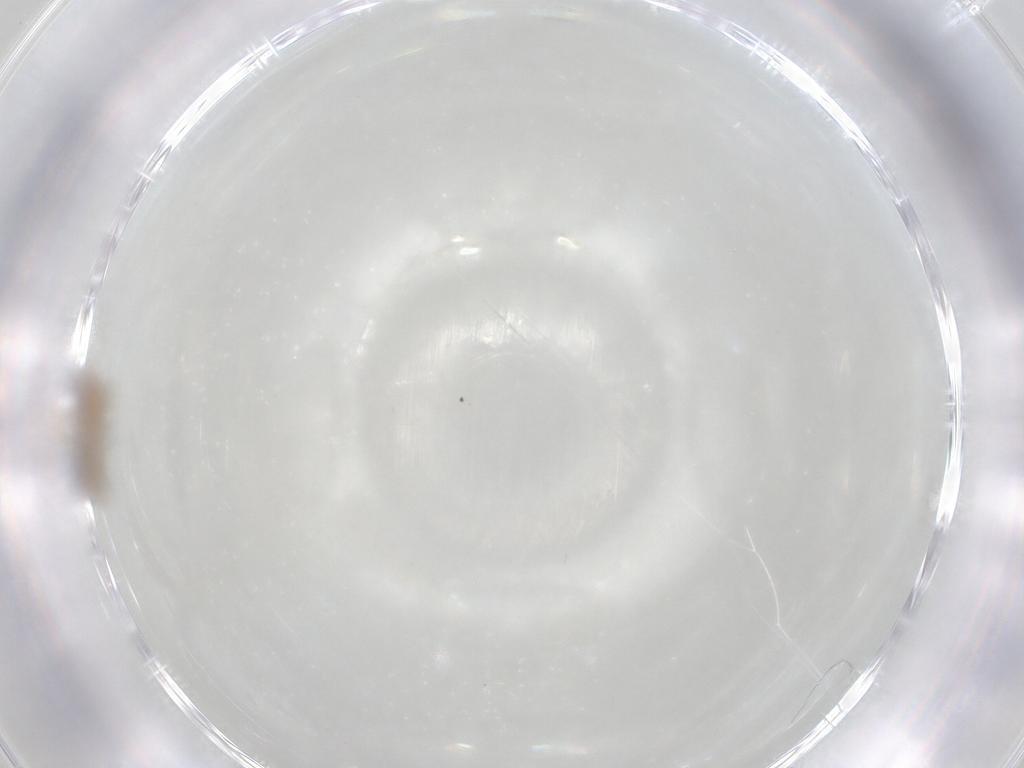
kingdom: Animalia
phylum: Arthropoda
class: Insecta
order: Diptera
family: Chironomidae
